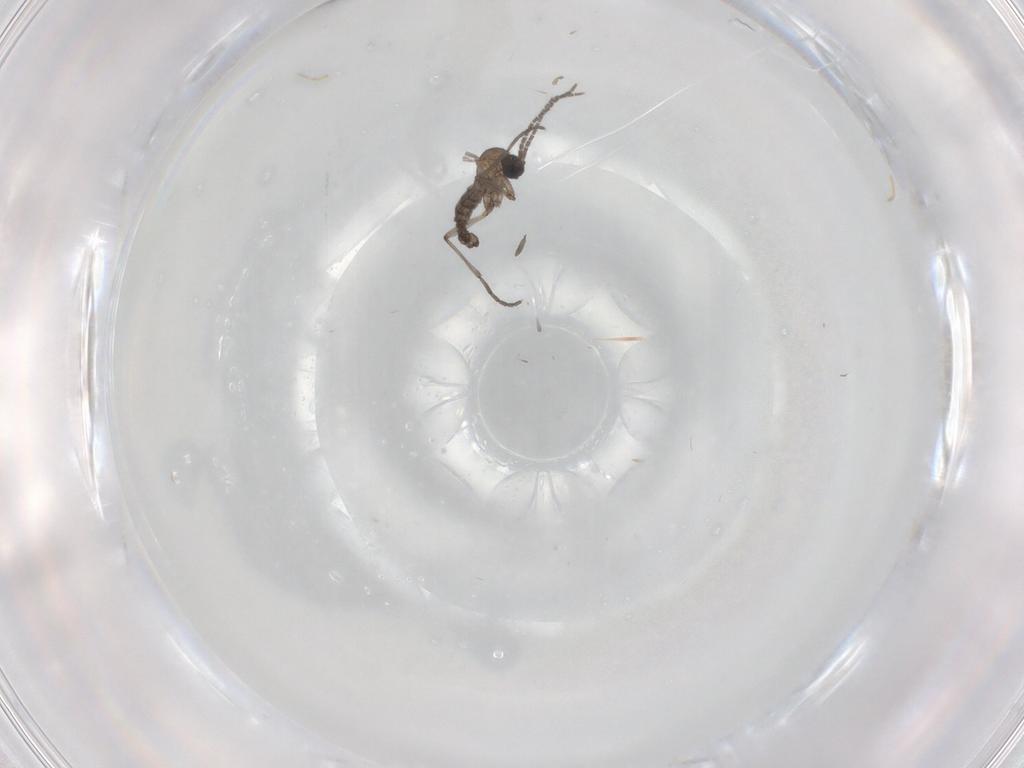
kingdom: Animalia
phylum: Arthropoda
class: Insecta
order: Diptera
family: Sciaridae
